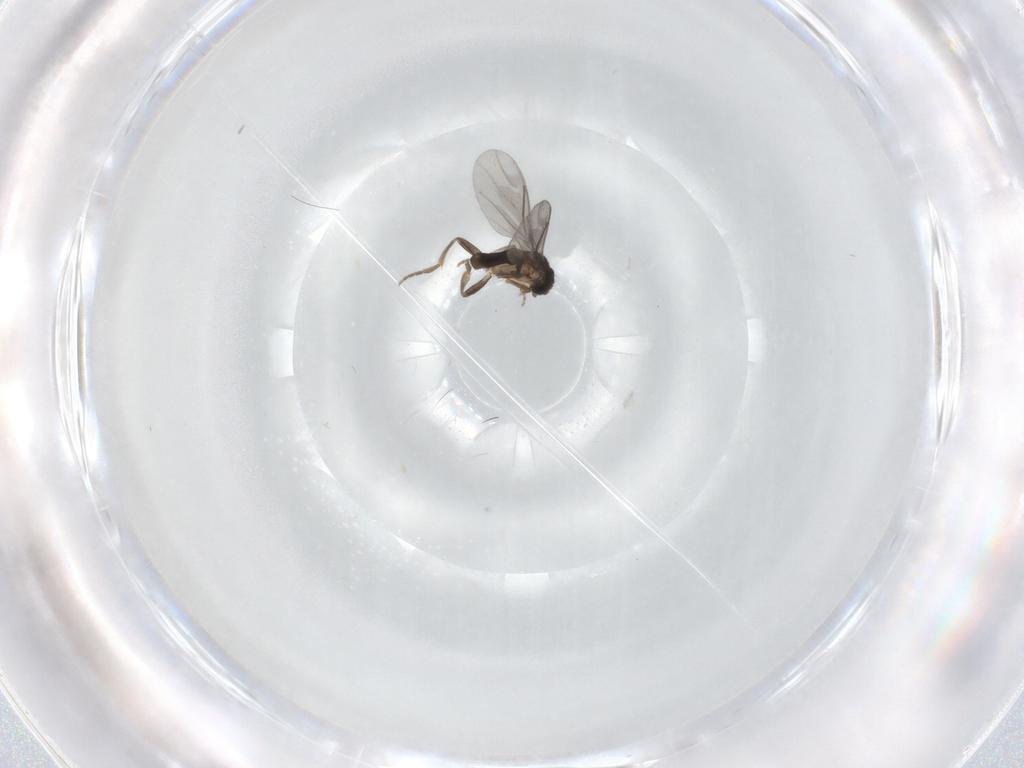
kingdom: Animalia
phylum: Arthropoda
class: Insecta
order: Diptera
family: Phoridae
